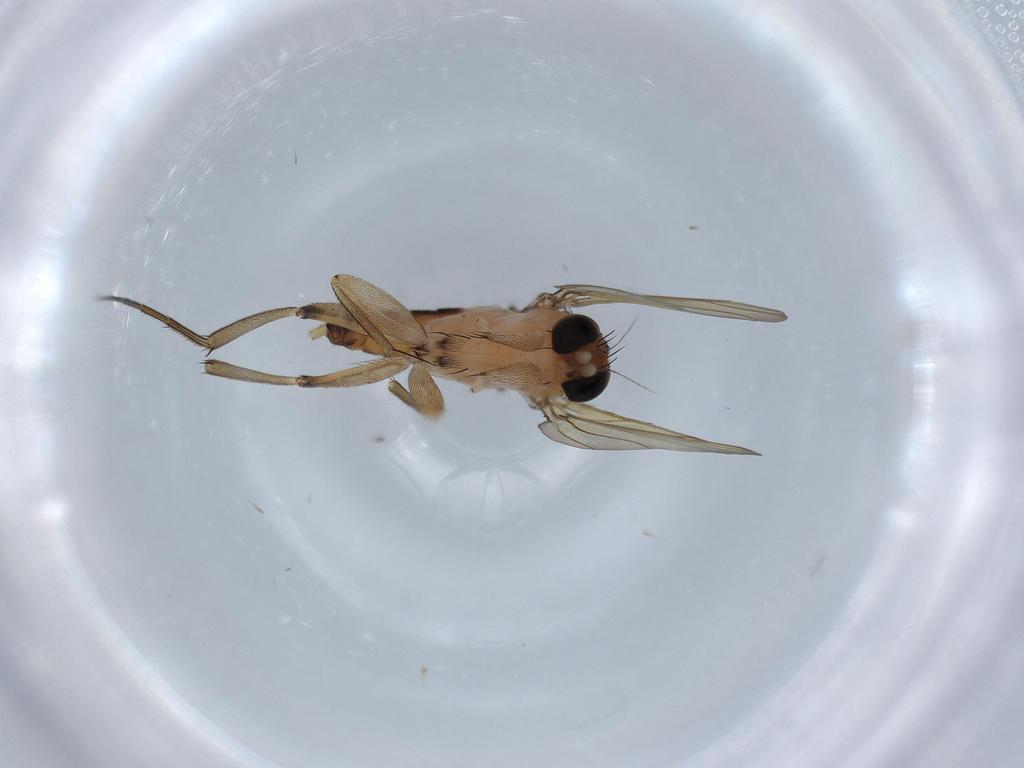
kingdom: Animalia
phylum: Arthropoda
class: Insecta
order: Diptera
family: Phoridae
